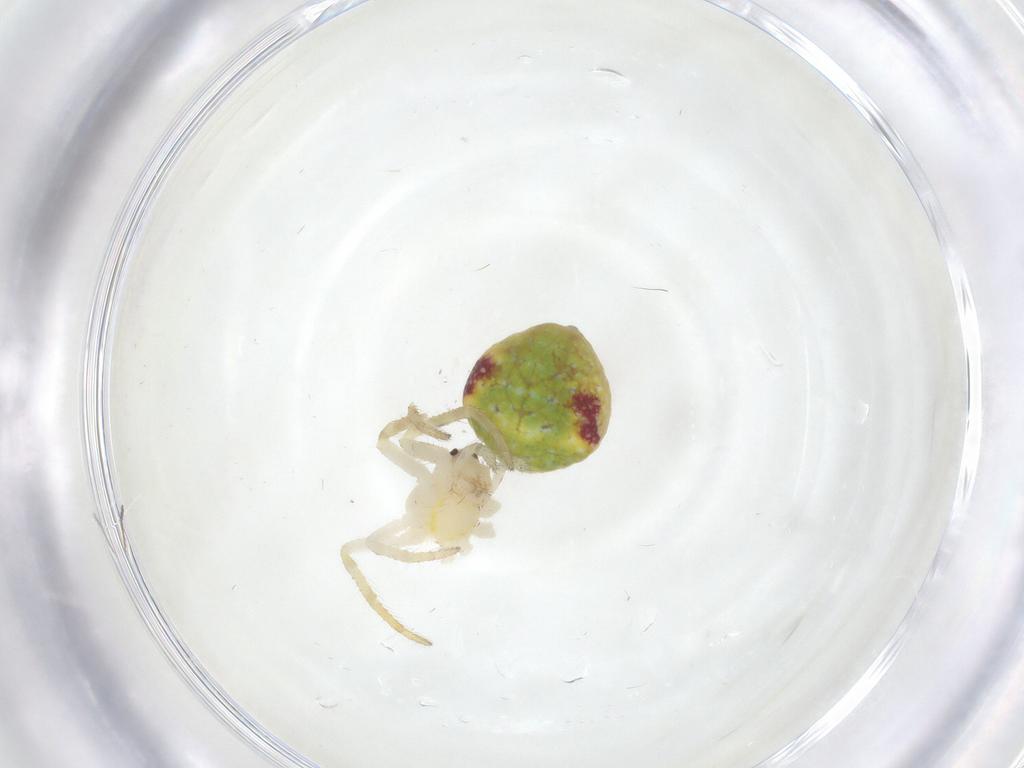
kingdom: Animalia
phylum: Arthropoda
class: Arachnida
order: Araneae
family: Araneidae
